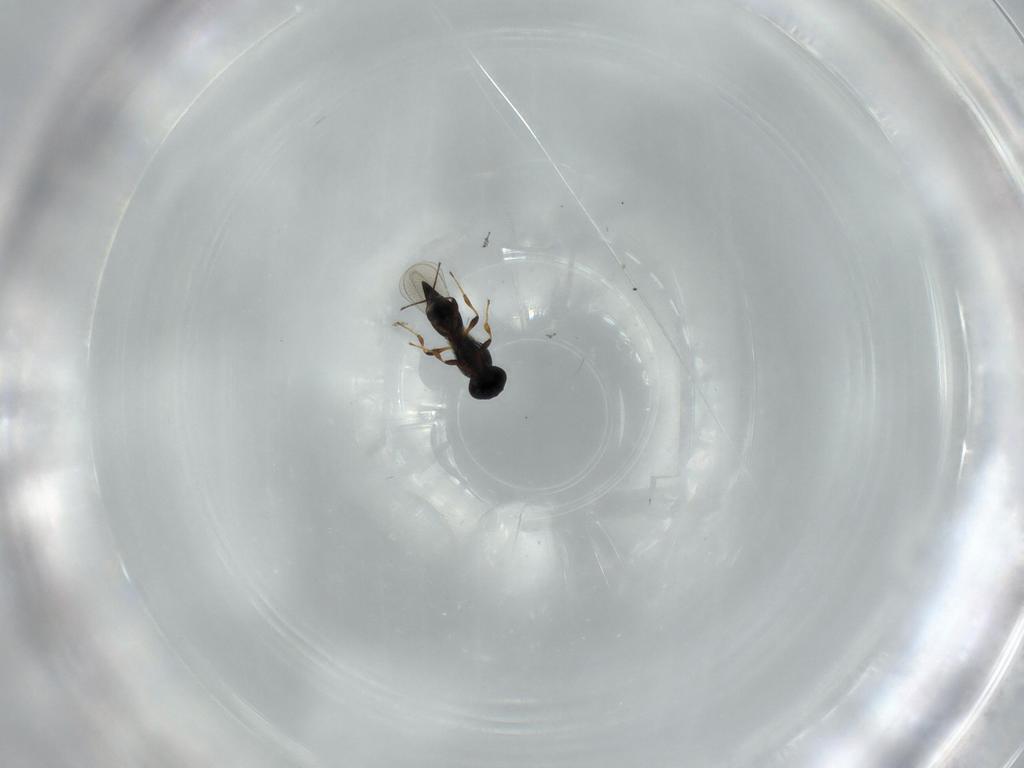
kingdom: Animalia
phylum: Arthropoda
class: Insecta
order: Hymenoptera
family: Platygastridae
